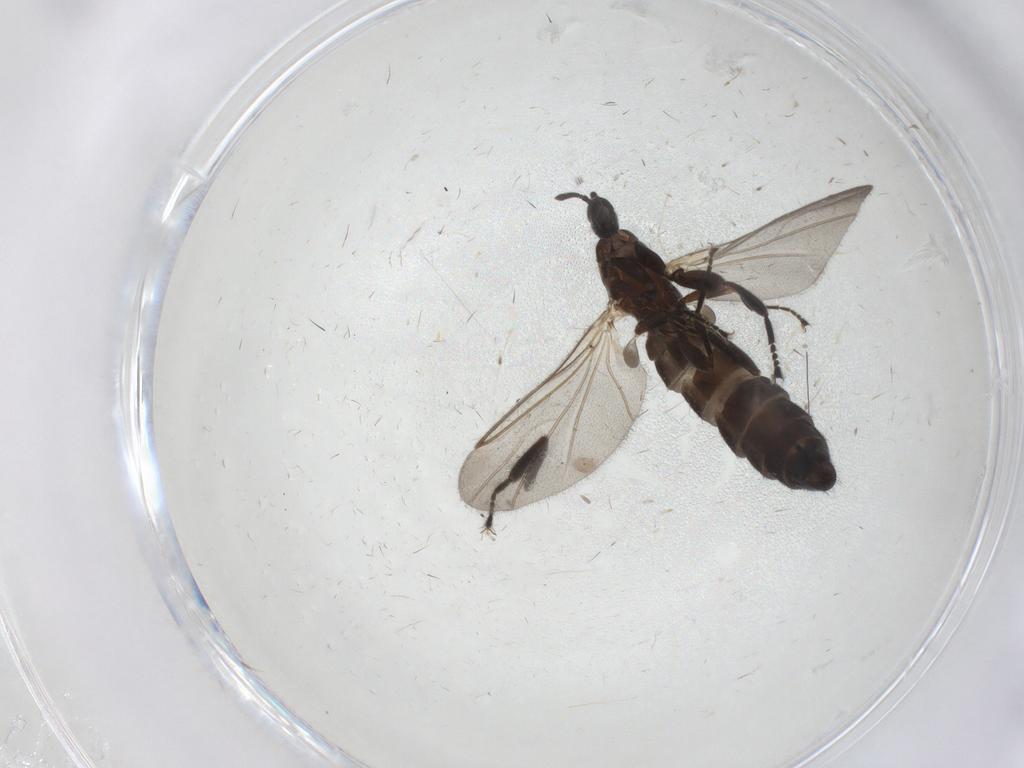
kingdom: Animalia
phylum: Arthropoda
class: Insecta
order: Diptera
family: Scatopsidae
